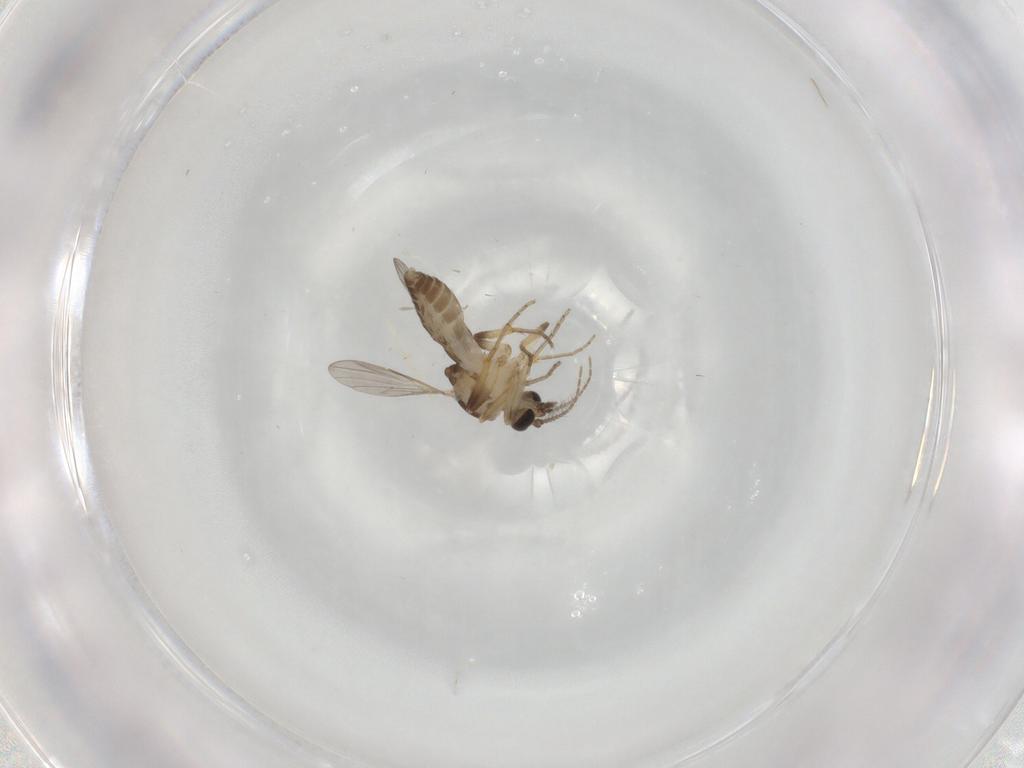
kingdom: Animalia
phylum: Arthropoda
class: Insecta
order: Diptera
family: Ceratopogonidae
